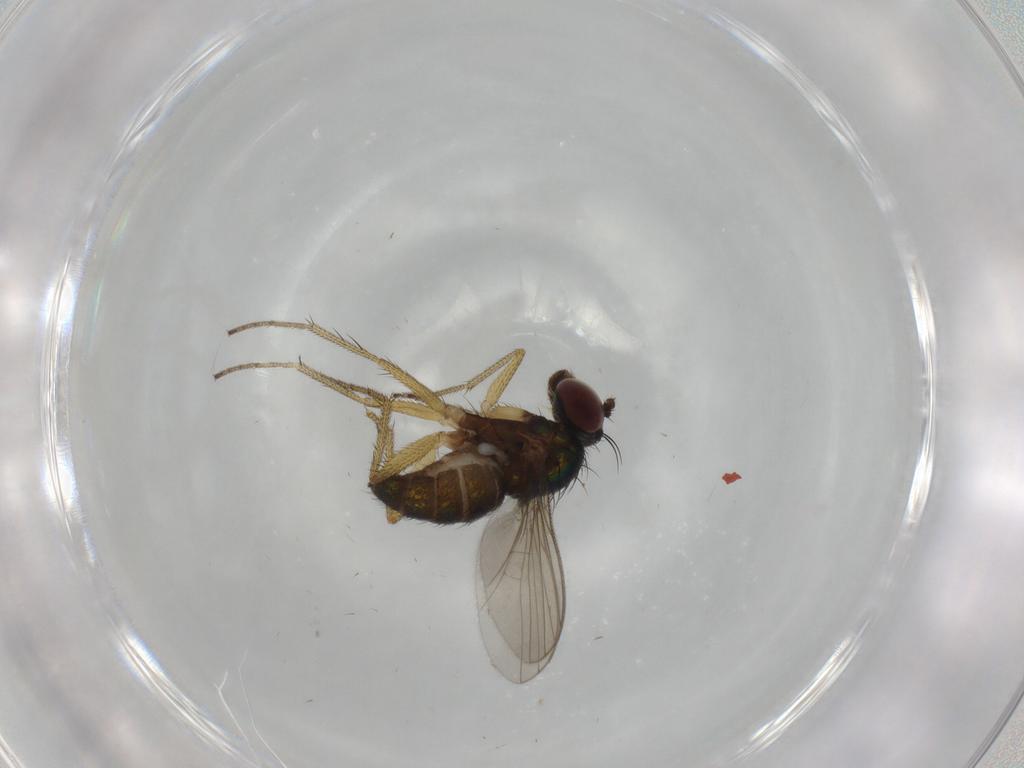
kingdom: Animalia
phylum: Arthropoda
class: Insecta
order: Diptera
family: Dolichopodidae
